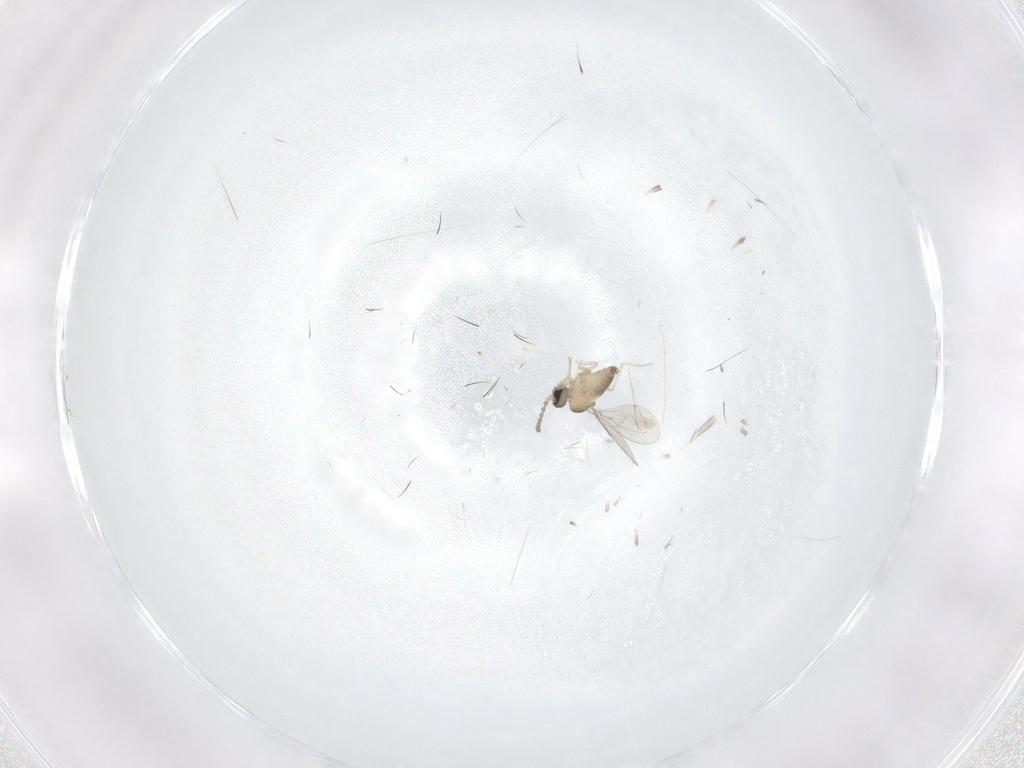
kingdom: Animalia
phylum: Arthropoda
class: Insecta
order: Diptera
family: Cecidomyiidae
